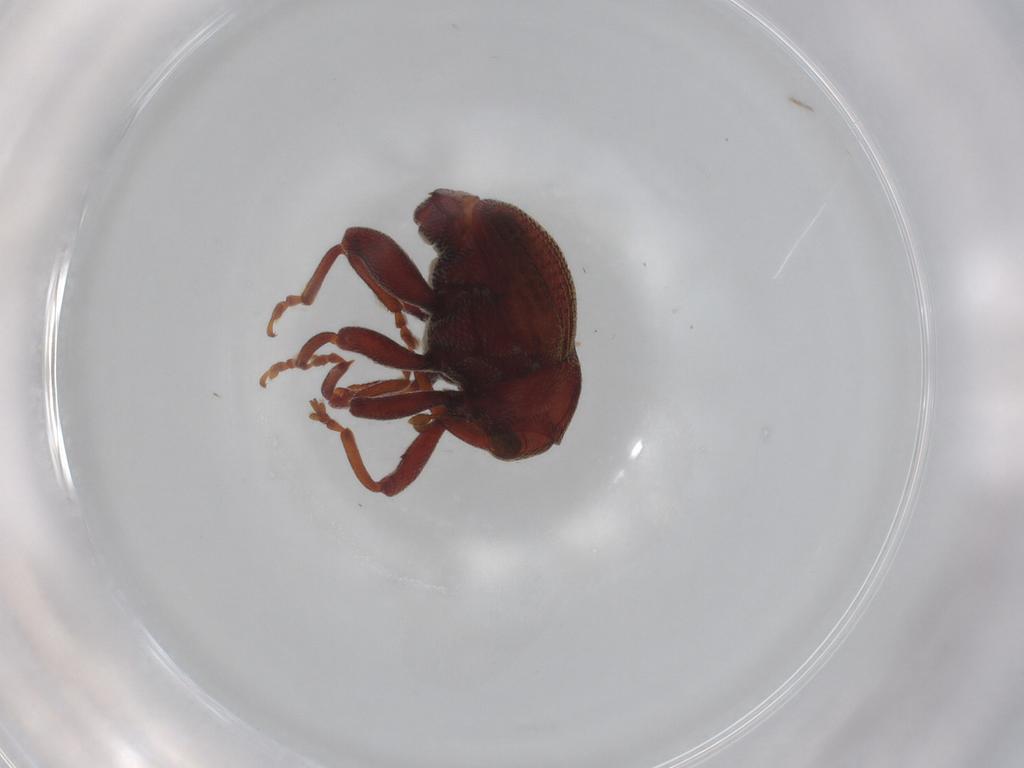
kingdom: Animalia
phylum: Arthropoda
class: Insecta
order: Coleoptera
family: Curculionidae
